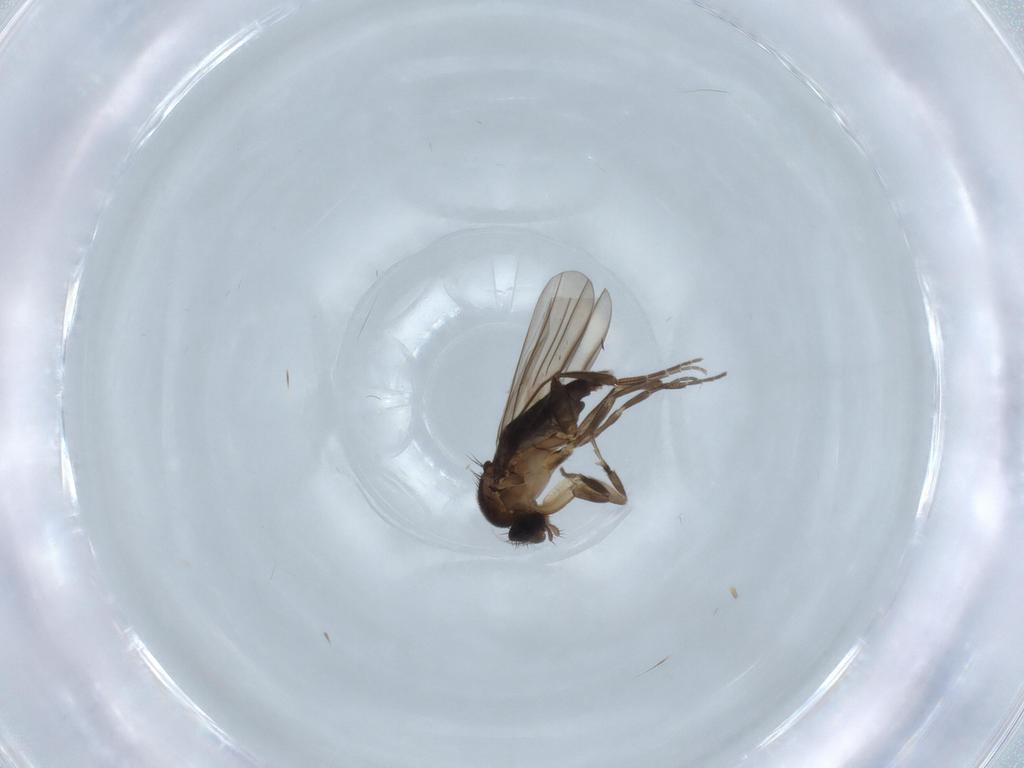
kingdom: Animalia
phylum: Arthropoda
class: Insecta
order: Diptera
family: Phoridae
